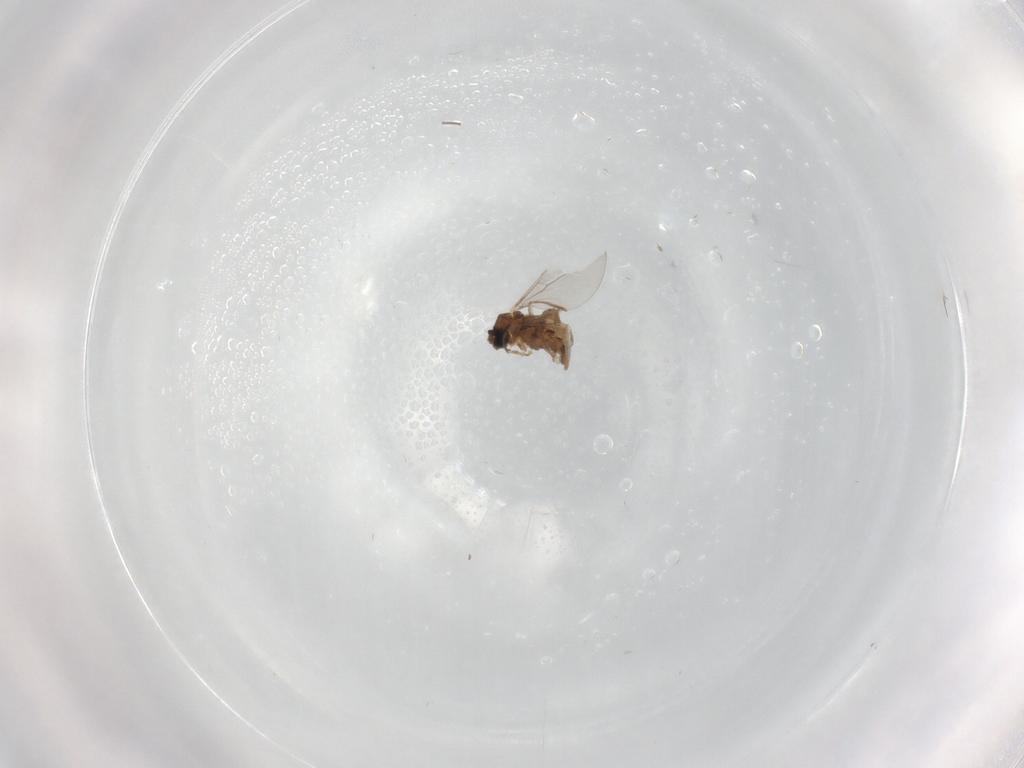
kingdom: Animalia
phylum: Arthropoda
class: Insecta
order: Diptera
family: Cecidomyiidae
